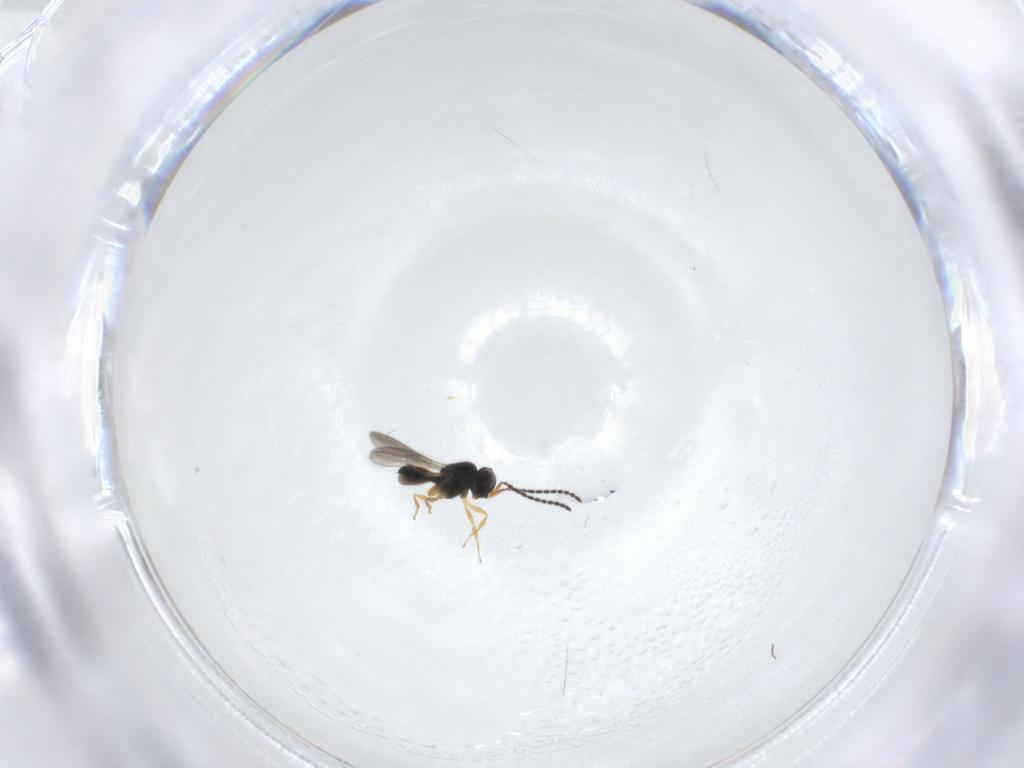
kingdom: Animalia
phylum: Arthropoda
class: Insecta
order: Hymenoptera
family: Scelionidae
